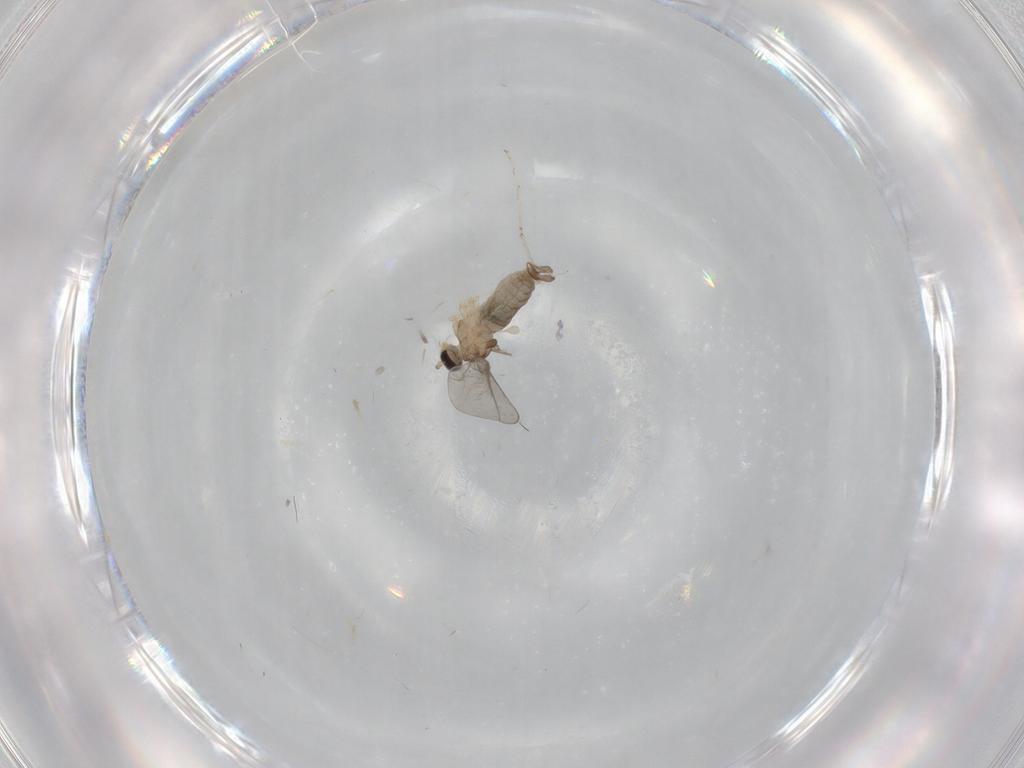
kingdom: Animalia
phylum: Arthropoda
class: Insecta
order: Diptera
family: Cecidomyiidae
